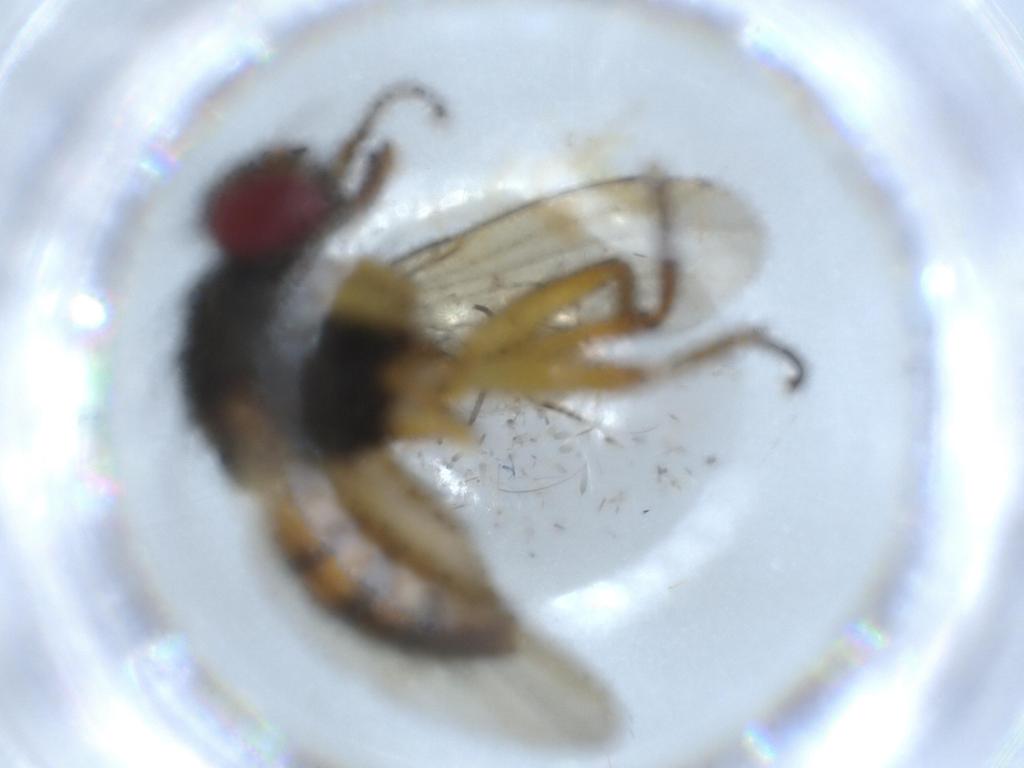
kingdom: Animalia
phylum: Arthropoda
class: Insecta
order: Diptera
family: Muscidae
